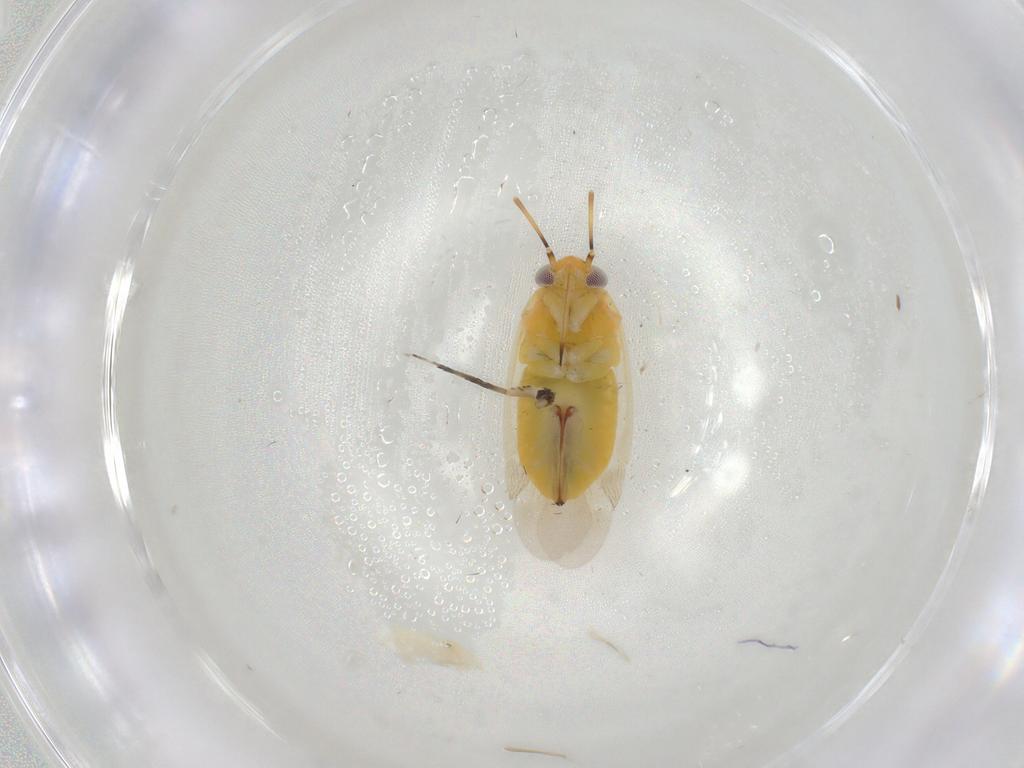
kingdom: Animalia
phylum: Arthropoda
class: Insecta
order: Hemiptera
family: Miridae
